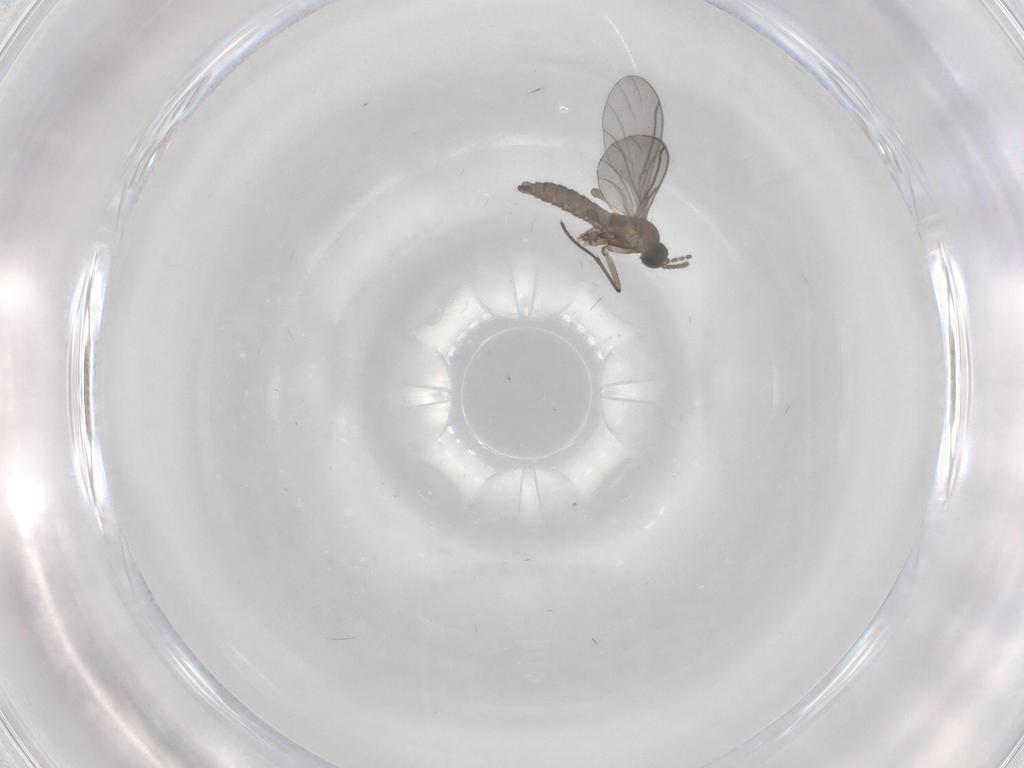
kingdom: Animalia
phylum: Arthropoda
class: Insecta
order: Diptera
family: Sciaridae
